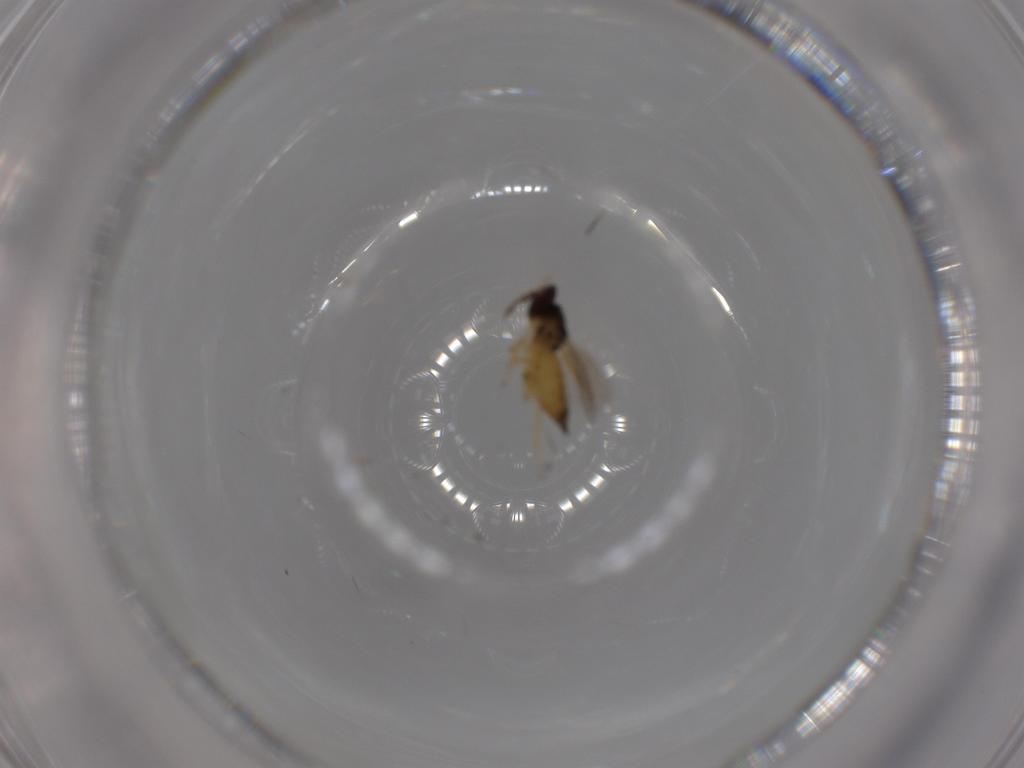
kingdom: Animalia
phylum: Arthropoda
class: Insecta
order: Hymenoptera
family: Eulophidae
